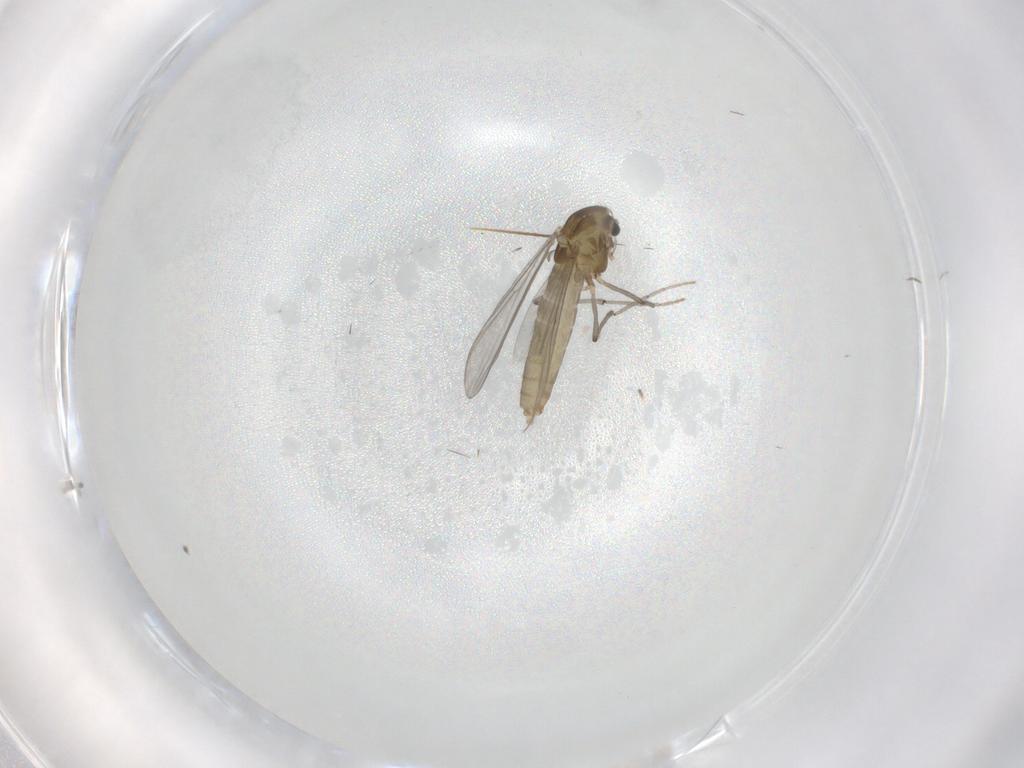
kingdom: Animalia
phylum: Arthropoda
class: Insecta
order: Diptera
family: Chironomidae
